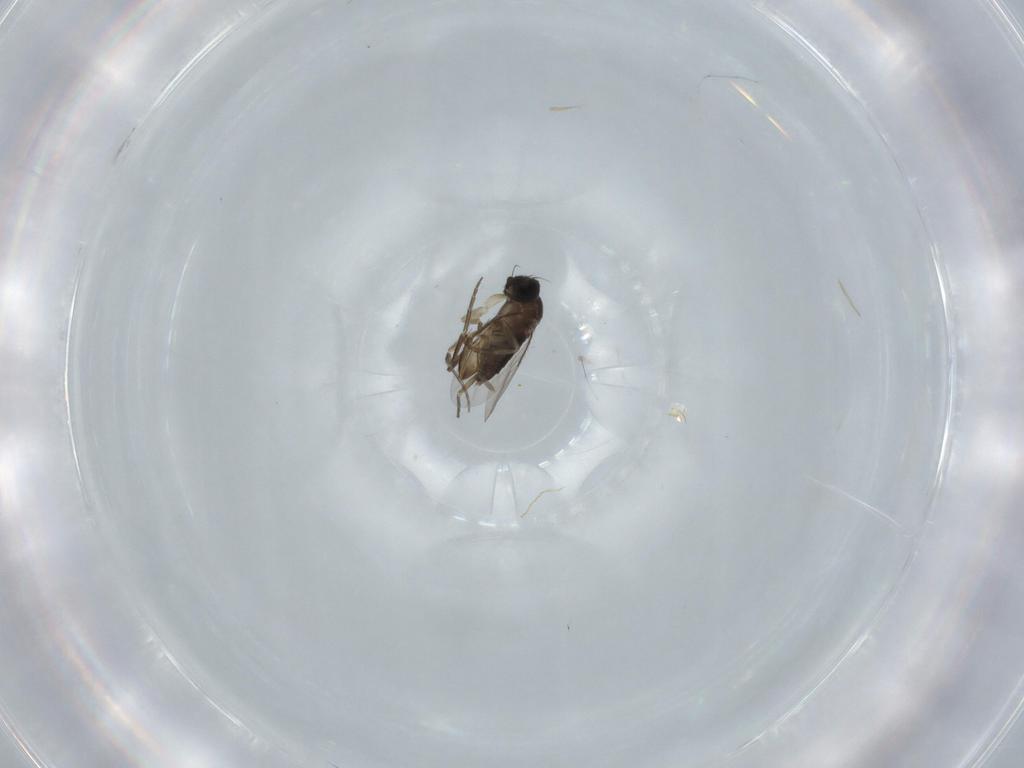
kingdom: Animalia
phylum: Arthropoda
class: Insecta
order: Diptera
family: Phoridae
